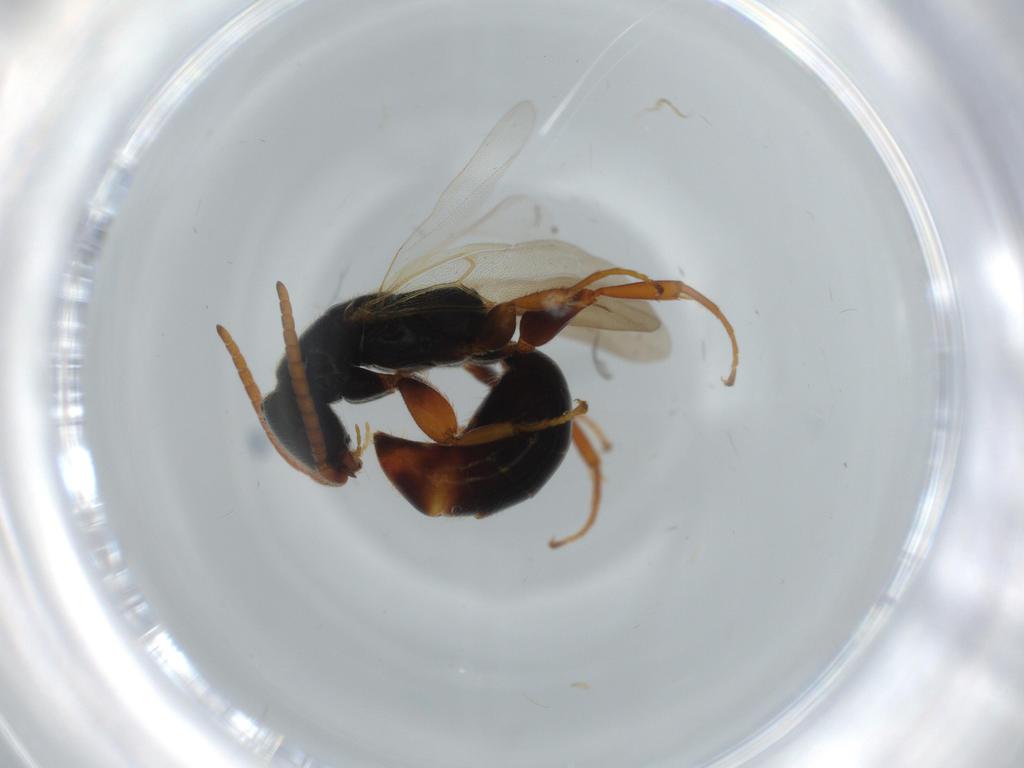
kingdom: Animalia
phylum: Arthropoda
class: Insecta
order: Hymenoptera
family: Bethylidae
